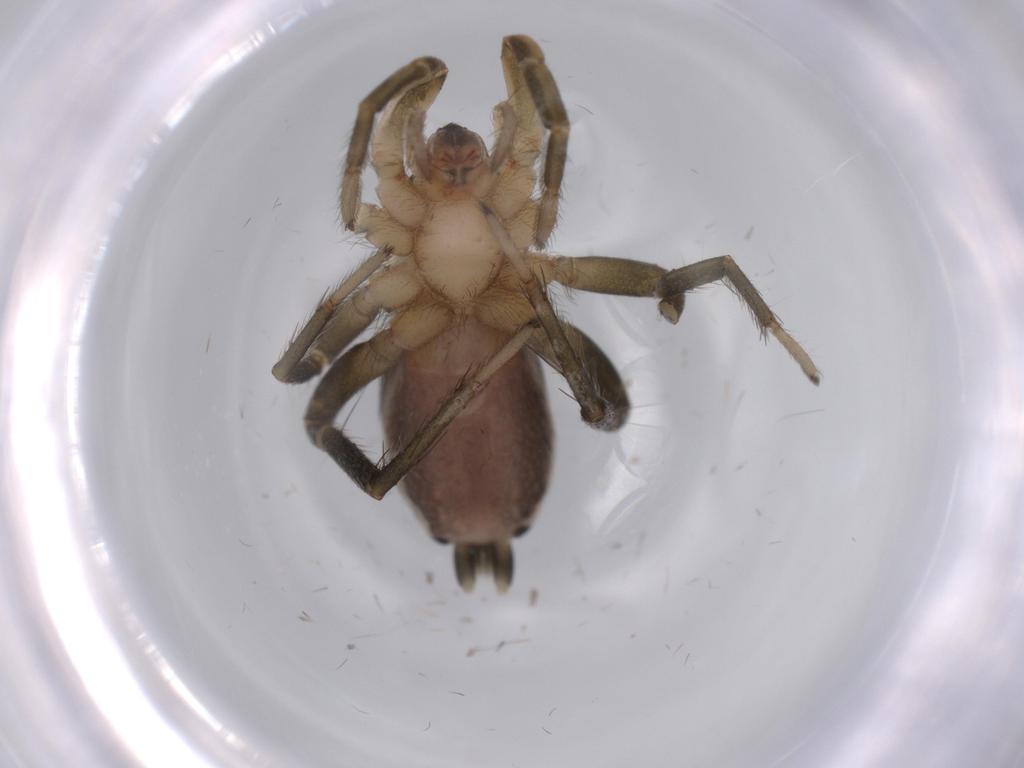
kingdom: Animalia
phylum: Arthropoda
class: Arachnida
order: Araneae
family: Gnaphosidae
